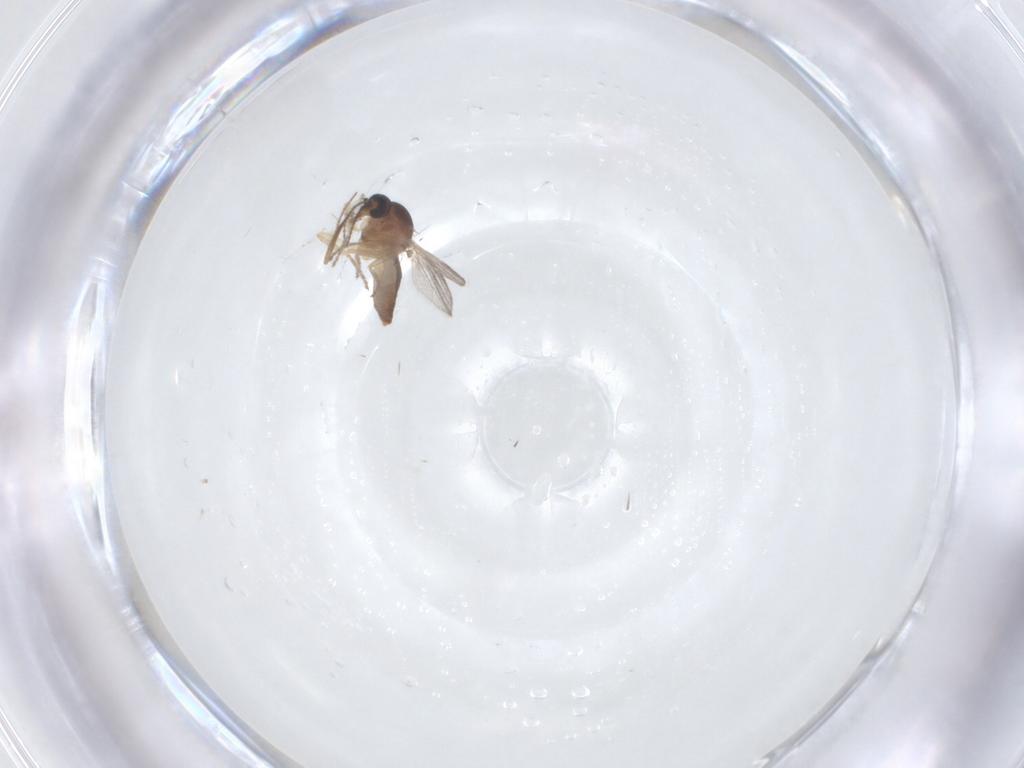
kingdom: Animalia
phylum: Arthropoda
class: Insecta
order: Diptera
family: Ceratopogonidae
